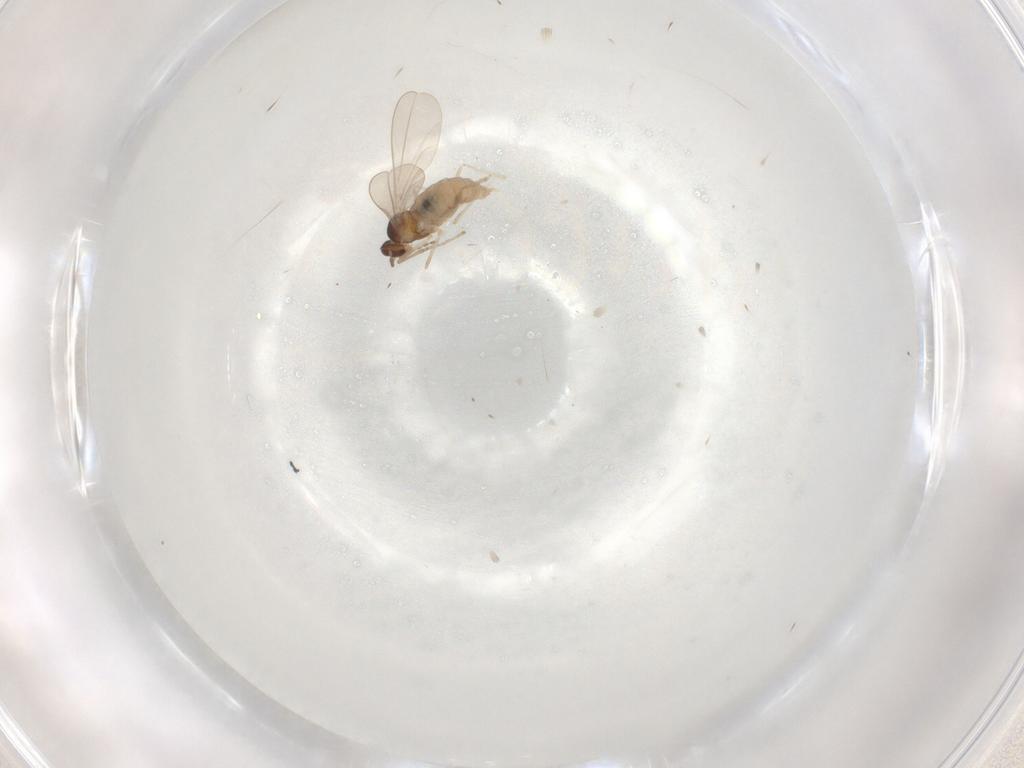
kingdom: Animalia
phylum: Arthropoda
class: Insecta
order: Diptera
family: Cecidomyiidae
